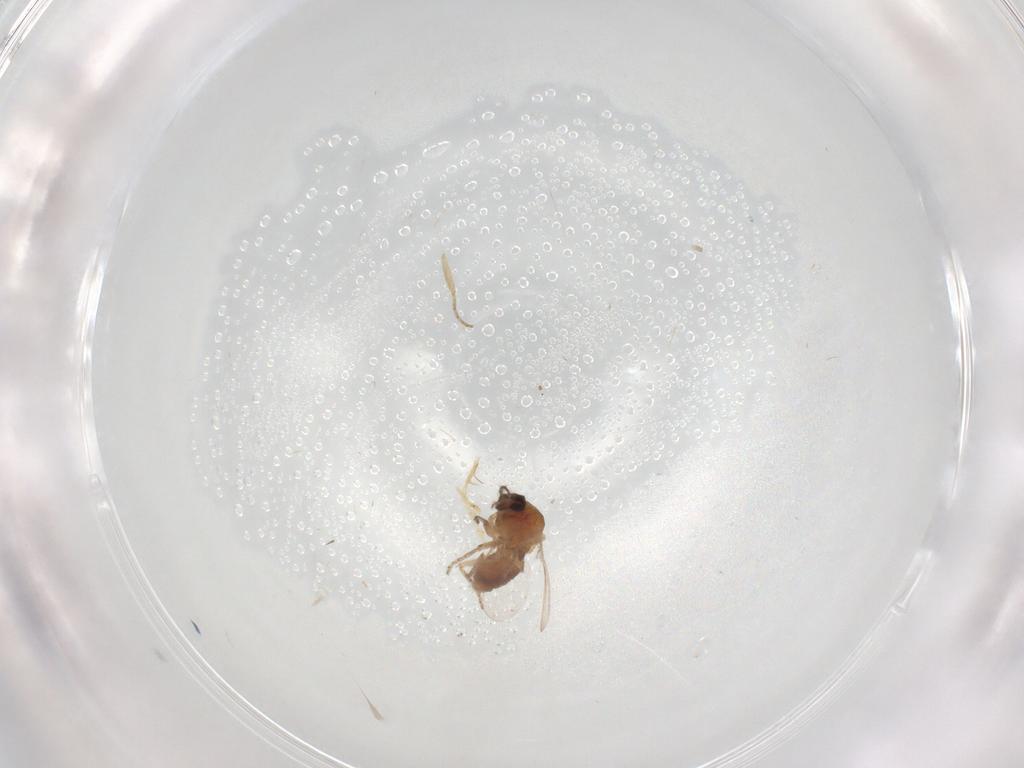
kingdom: Animalia
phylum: Arthropoda
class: Insecta
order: Diptera
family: Ceratopogonidae
